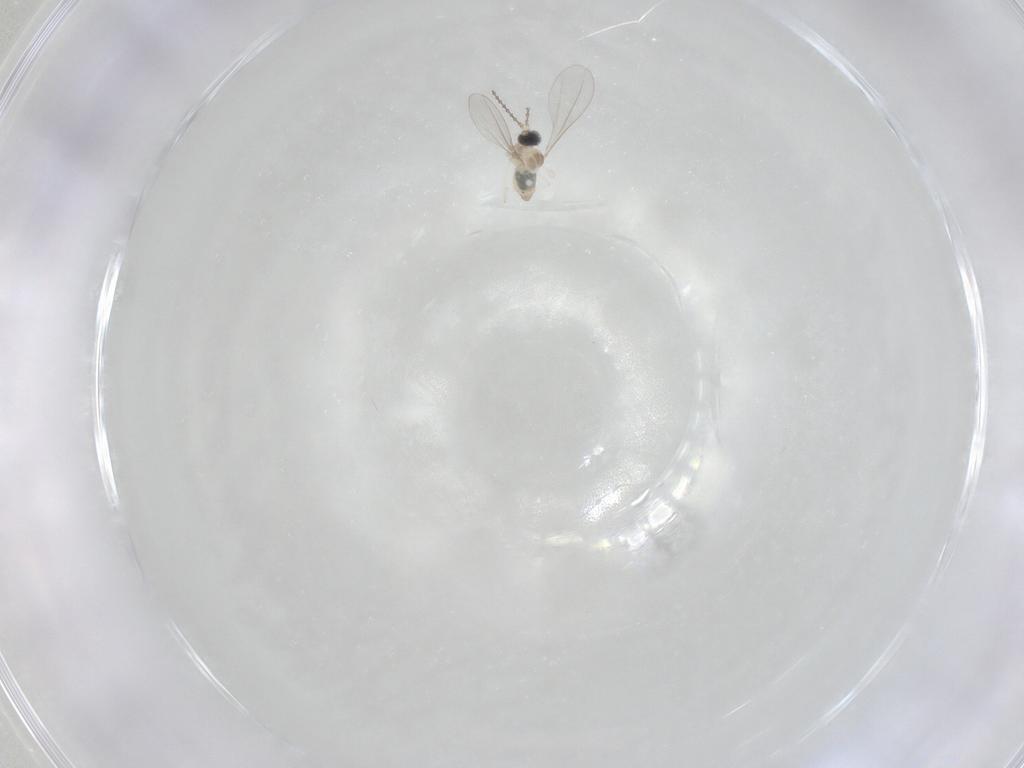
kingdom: Animalia
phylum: Arthropoda
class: Insecta
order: Diptera
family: Cecidomyiidae
